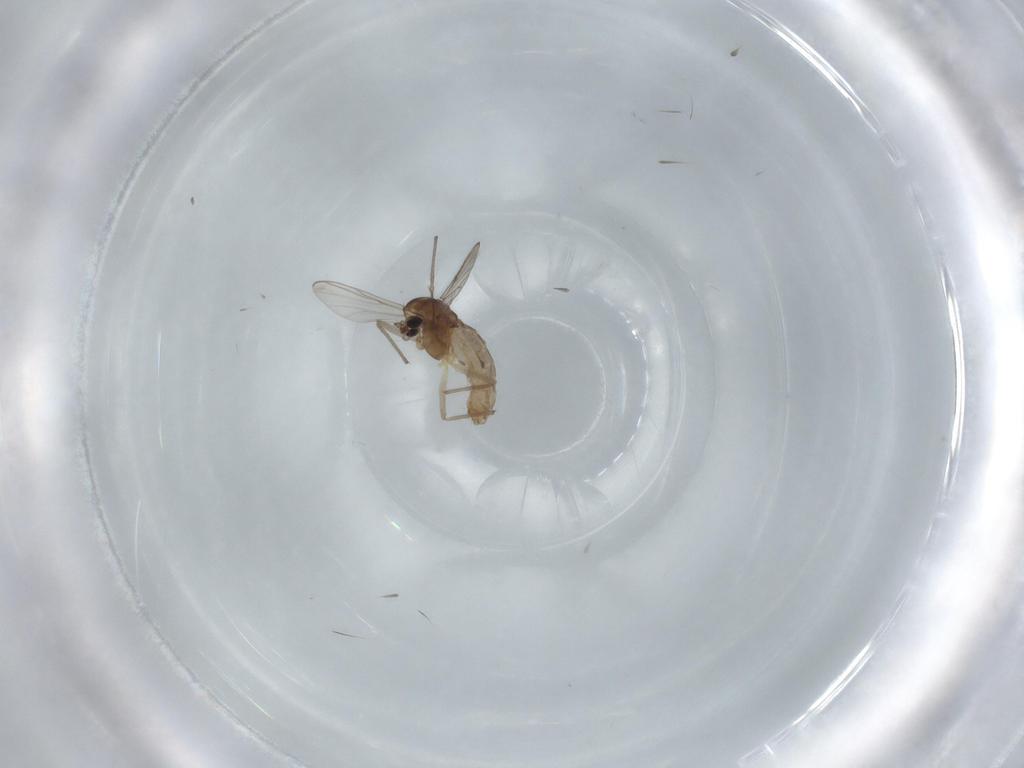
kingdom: Animalia
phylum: Arthropoda
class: Insecta
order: Diptera
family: Chironomidae
